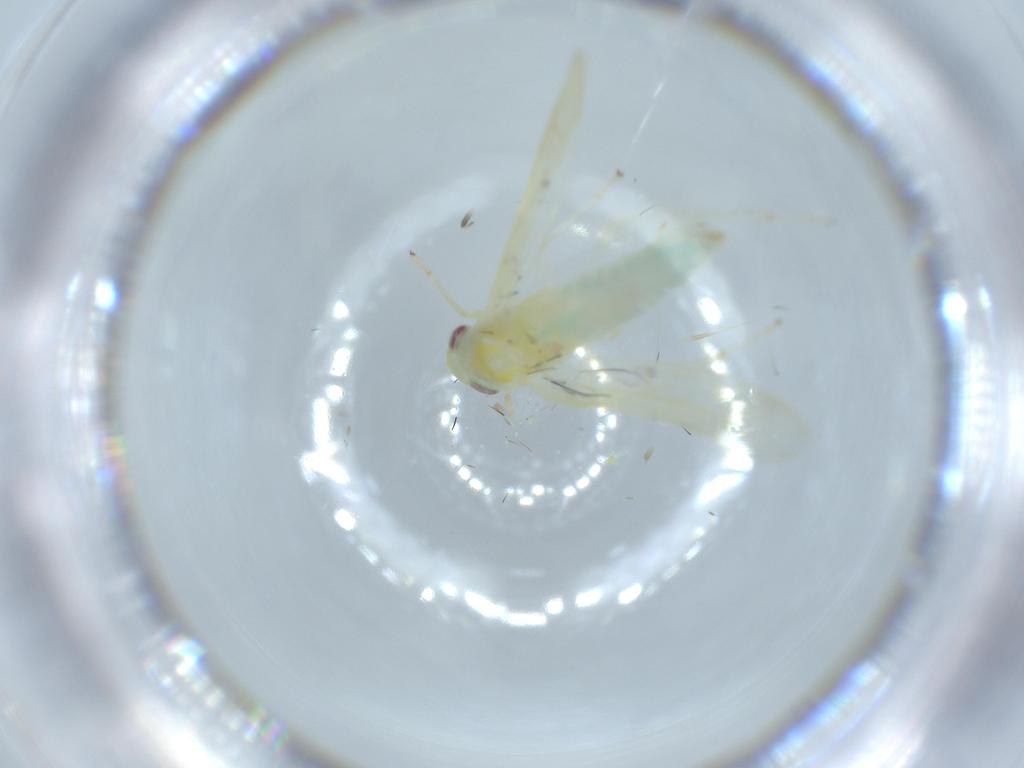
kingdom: Animalia
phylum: Arthropoda
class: Insecta
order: Hemiptera
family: Cicadellidae
